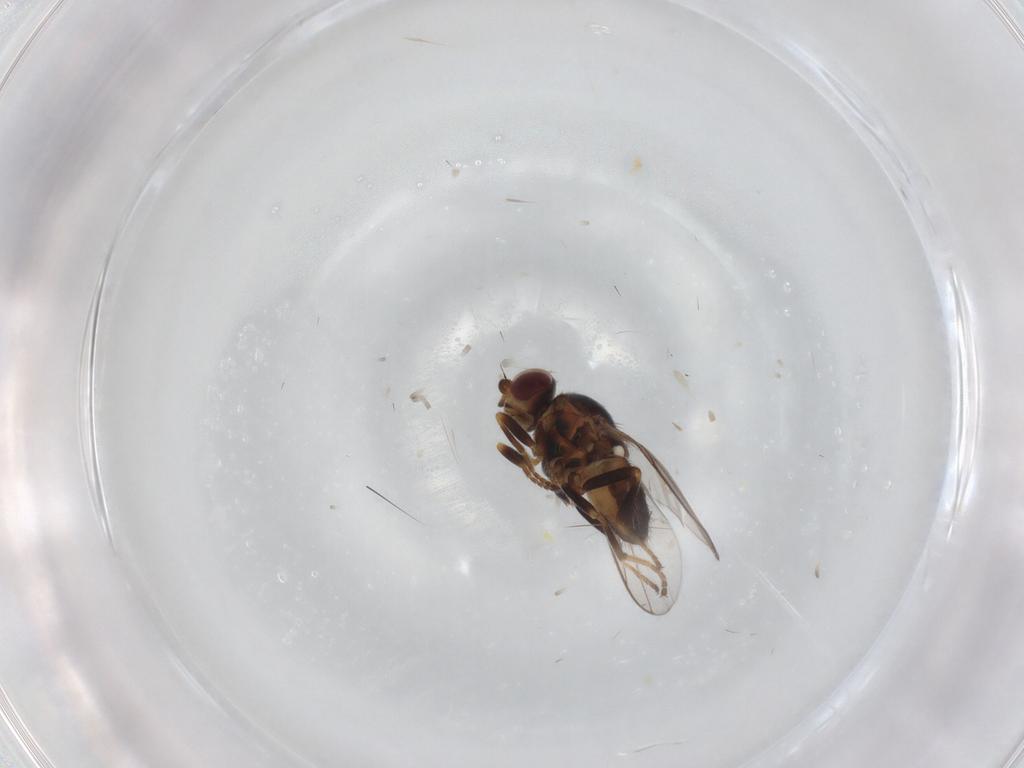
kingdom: Animalia
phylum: Arthropoda
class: Insecta
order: Diptera
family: Chloropidae
